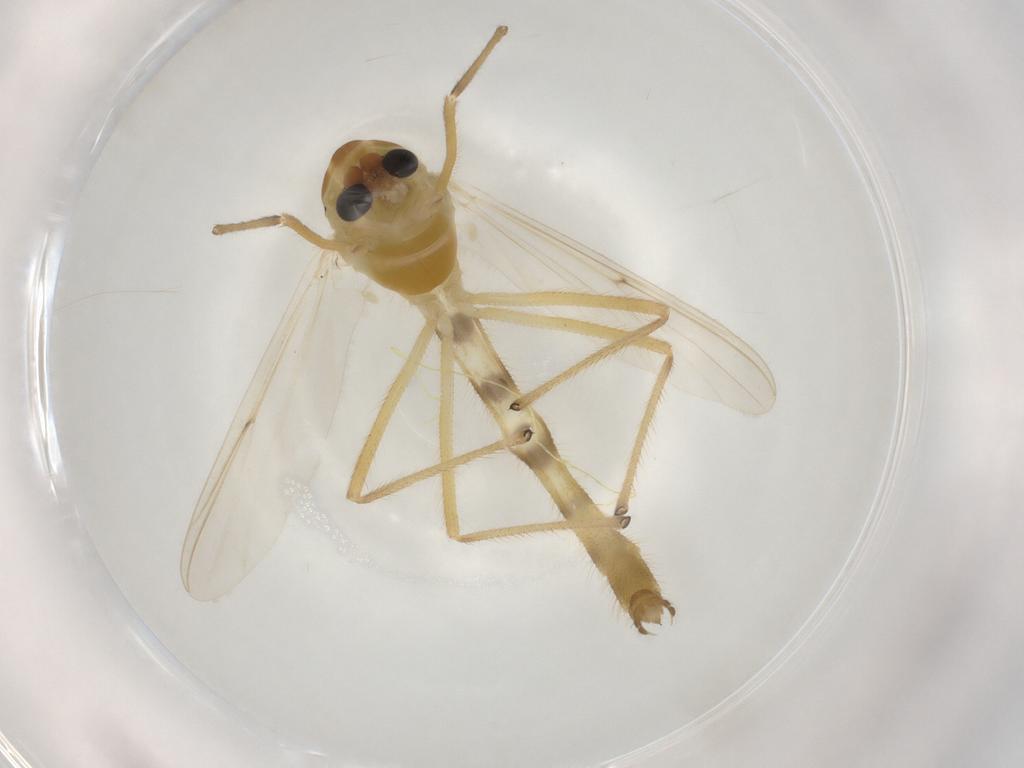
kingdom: Animalia
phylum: Arthropoda
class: Insecta
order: Diptera
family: Chironomidae
